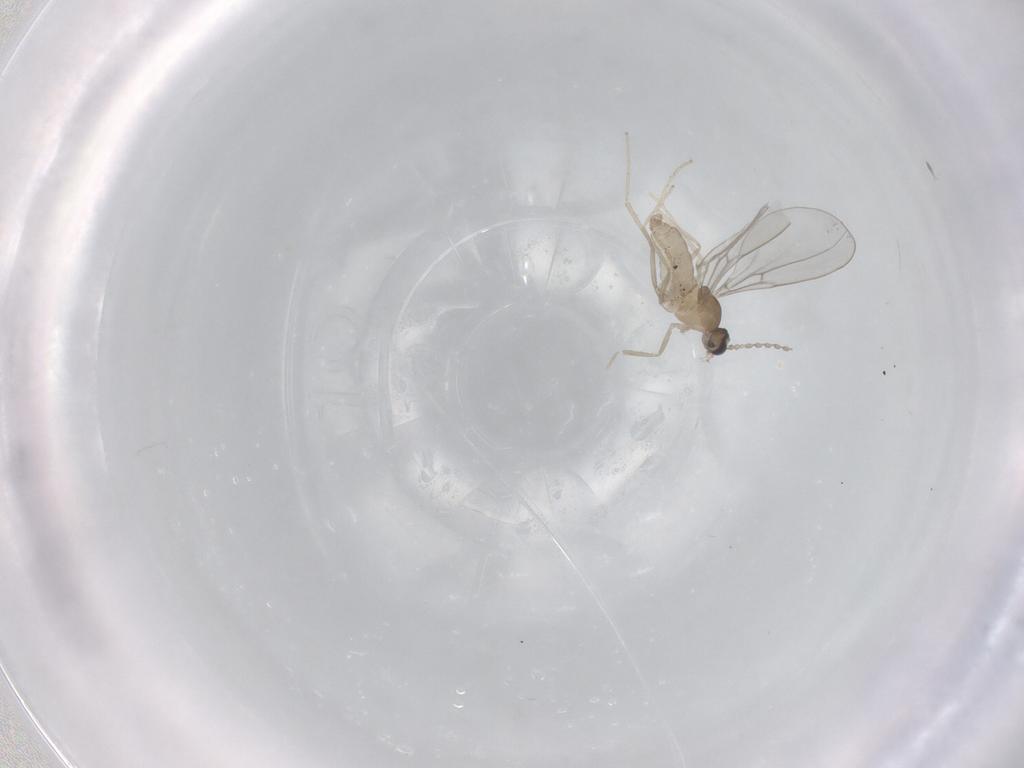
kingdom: Animalia
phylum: Arthropoda
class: Insecta
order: Diptera
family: Cecidomyiidae
